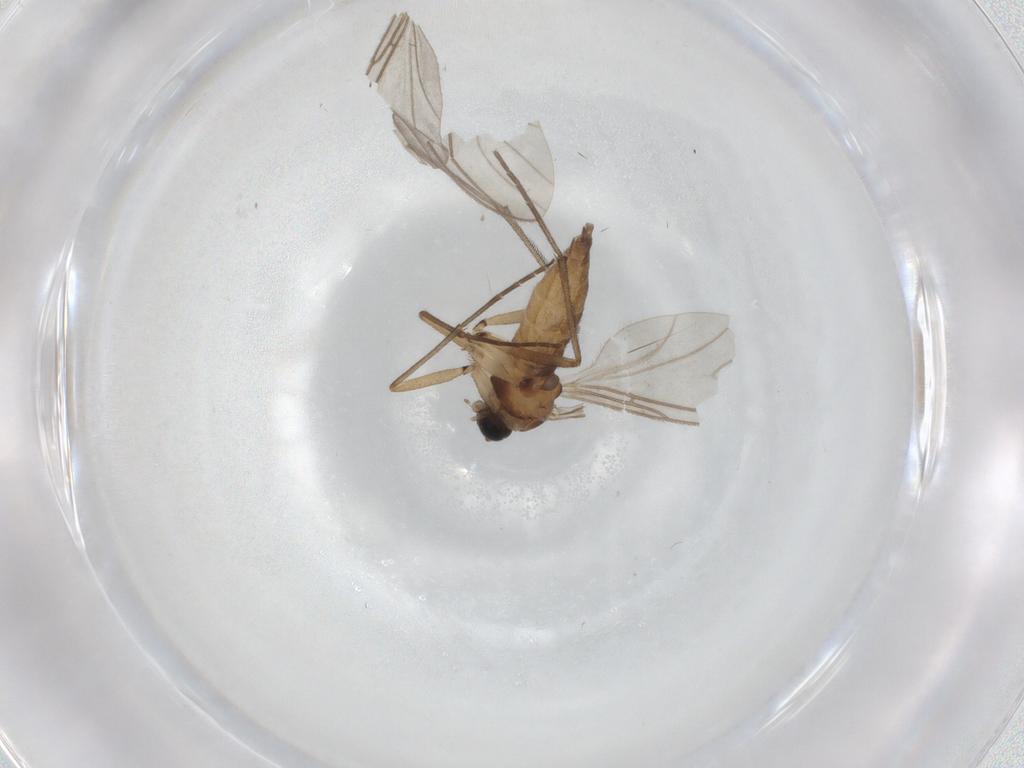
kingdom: Animalia
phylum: Arthropoda
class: Insecta
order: Diptera
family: Sciaridae
